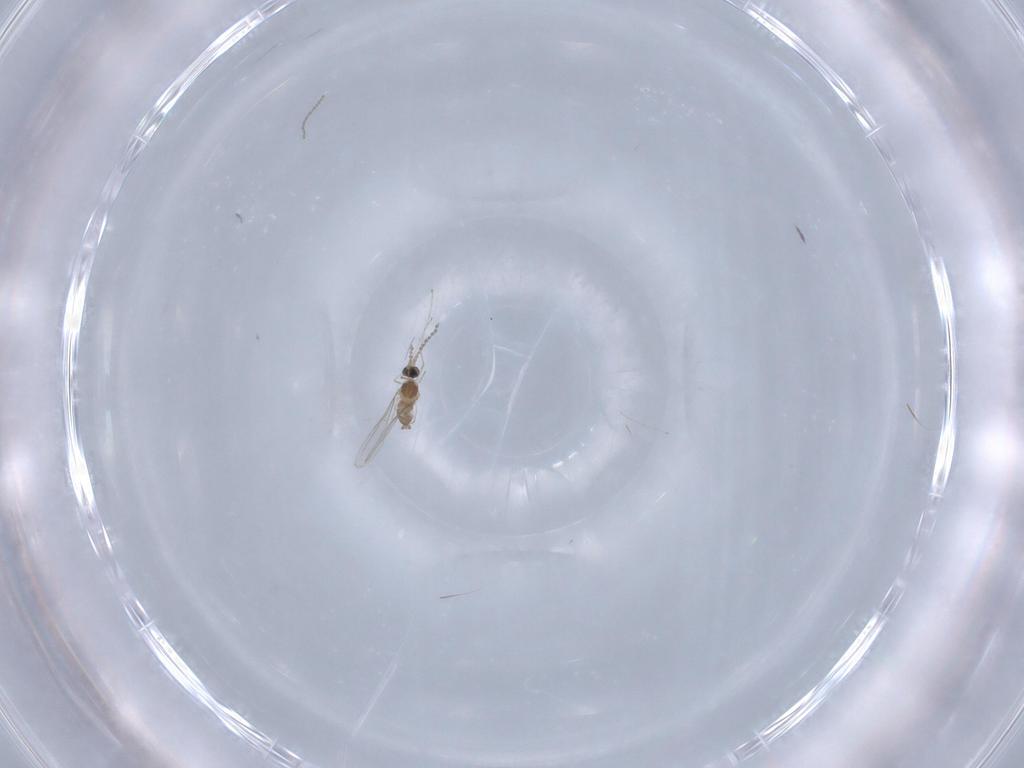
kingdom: Animalia
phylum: Arthropoda
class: Insecta
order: Diptera
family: Cecidomyiidae
